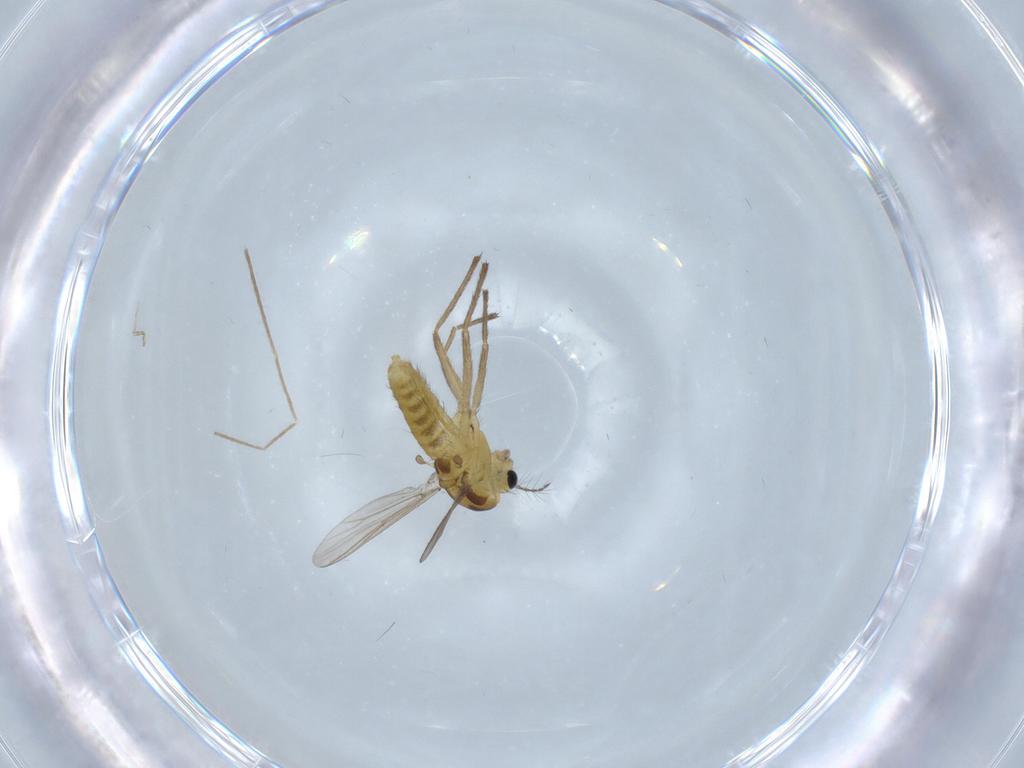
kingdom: Animalia
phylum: Arthropoda
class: Insecta
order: Diptera
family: Chironomidae
